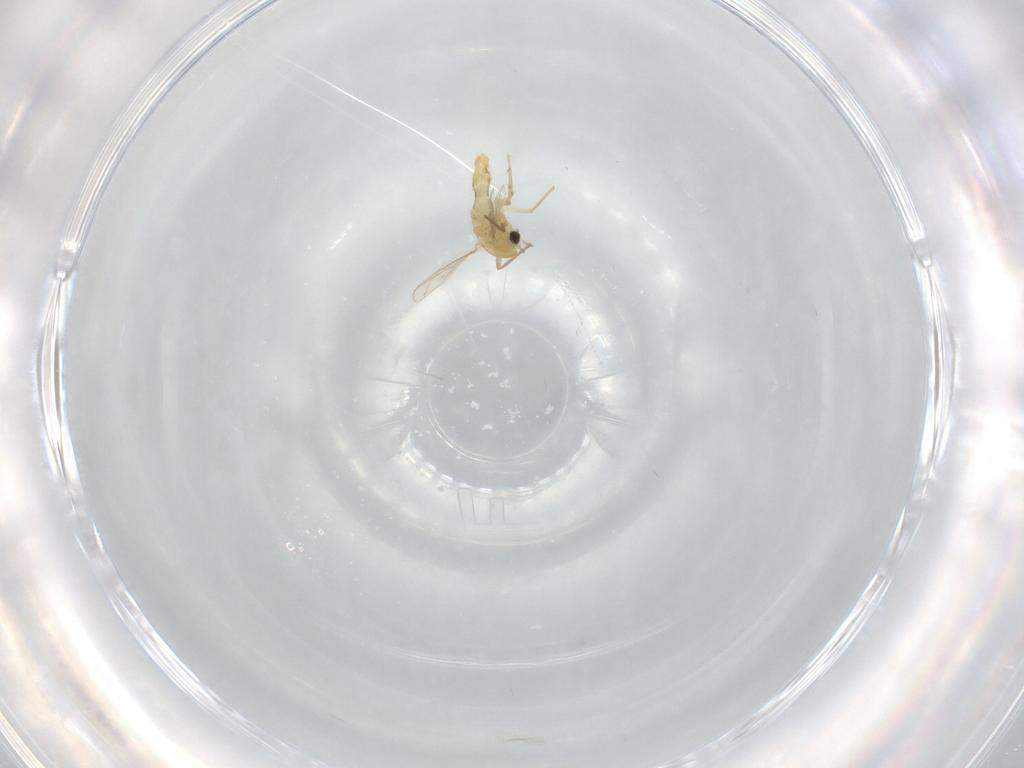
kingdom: Animalia
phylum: Arthropoda
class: Insecta
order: Diptera
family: Chironomidae
